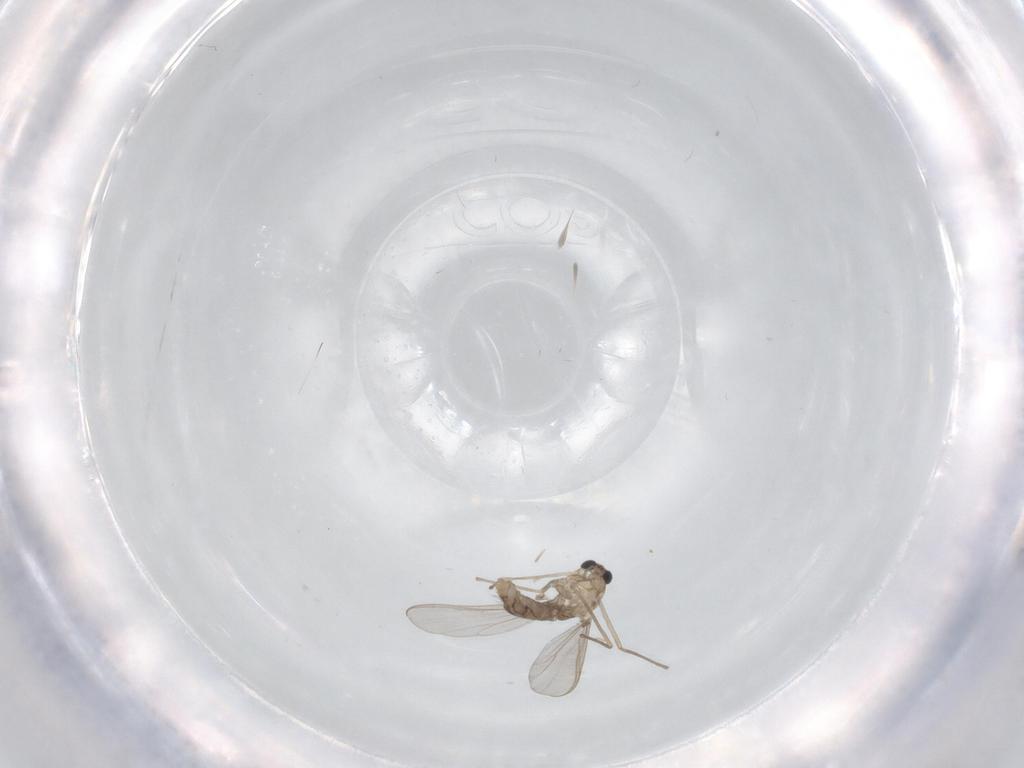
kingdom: Animalia
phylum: Arthropoda
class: Insecta
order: Diptera
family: Chironomidae
